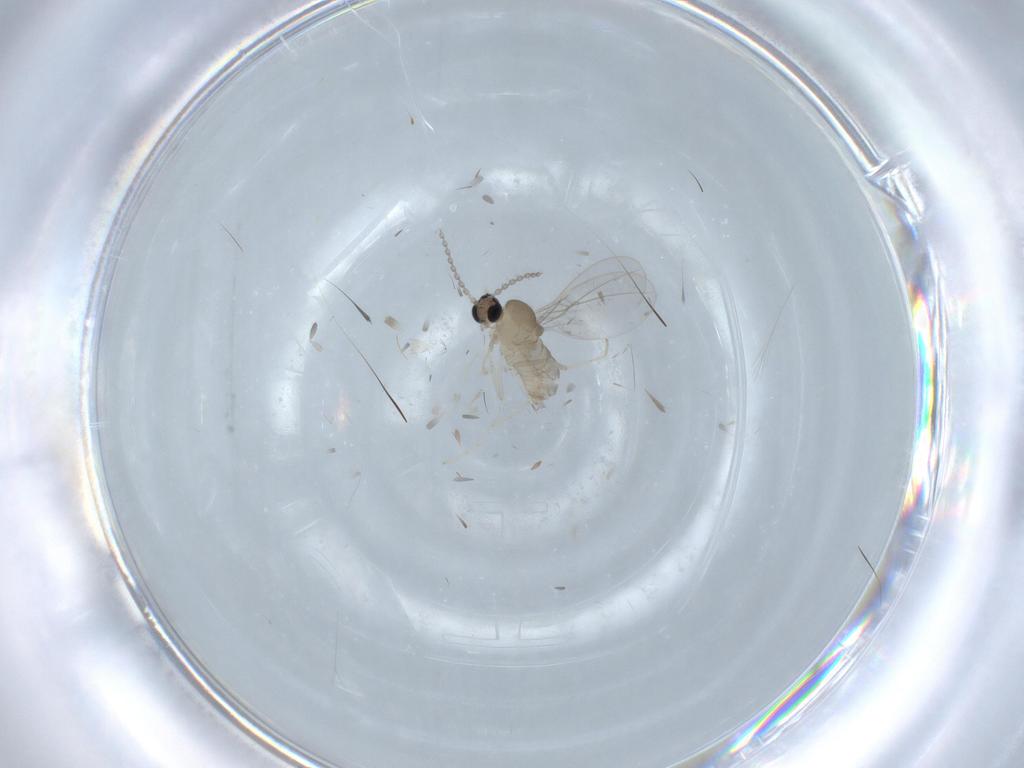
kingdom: Animalia
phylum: Arthropoda
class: Insecta
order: Diptera
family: Cecidomyiidae
